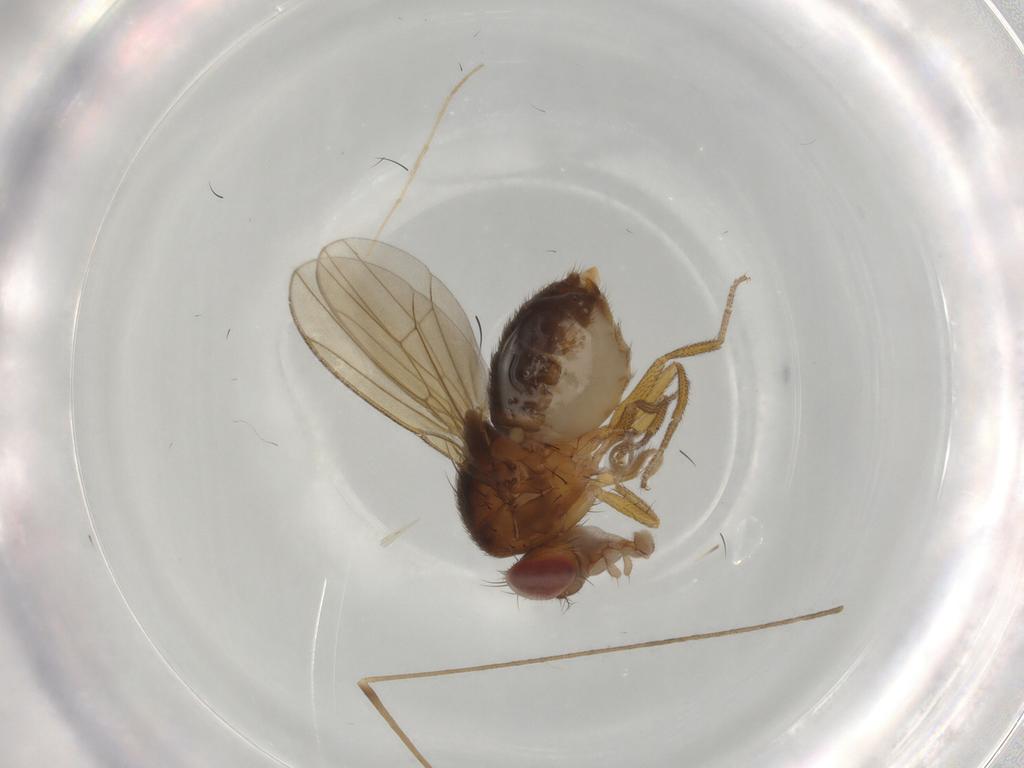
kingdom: Animalia
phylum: Arthropoda
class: Insecta
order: Diptera
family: Dolichopodidae
